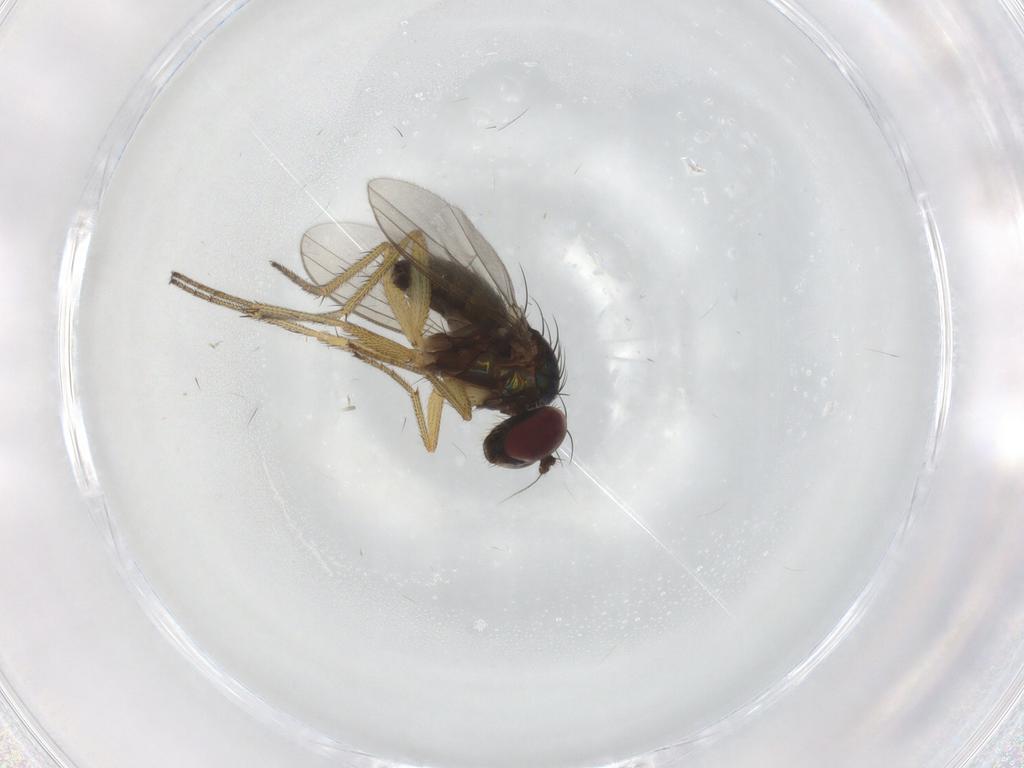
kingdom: Animalia
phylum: Arthropoda
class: Insecta
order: Diptera
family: Dolichopodidae
